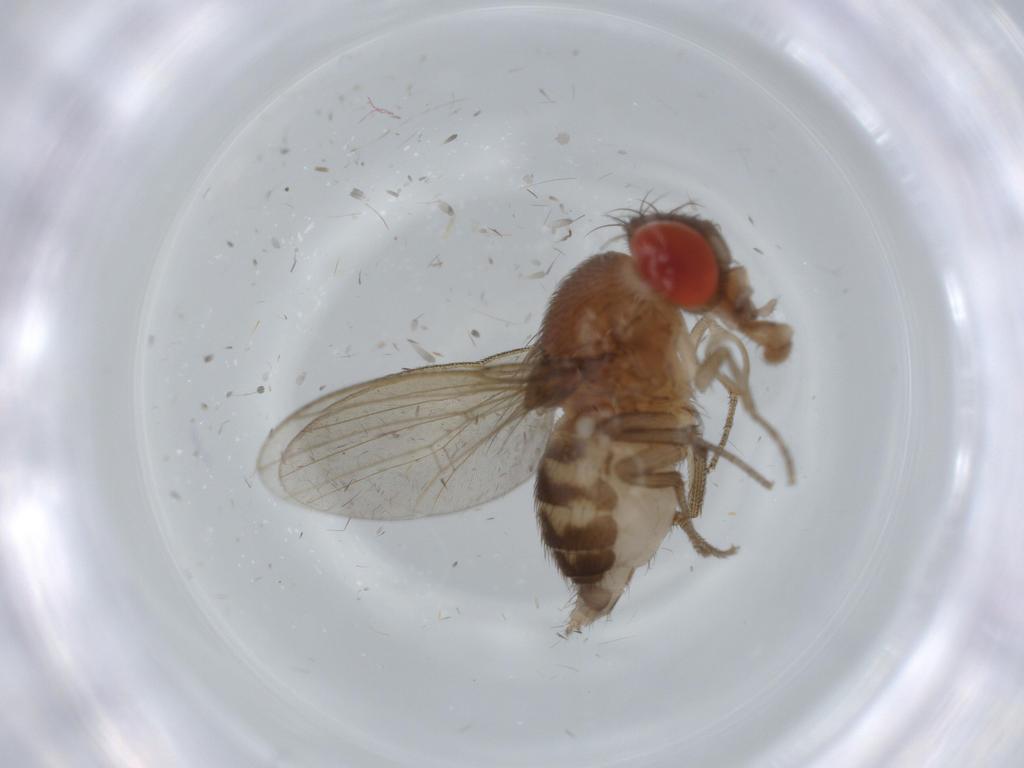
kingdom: Animalia
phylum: Arthropoda
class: Insecta
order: Diptera
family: Drosophilidae
